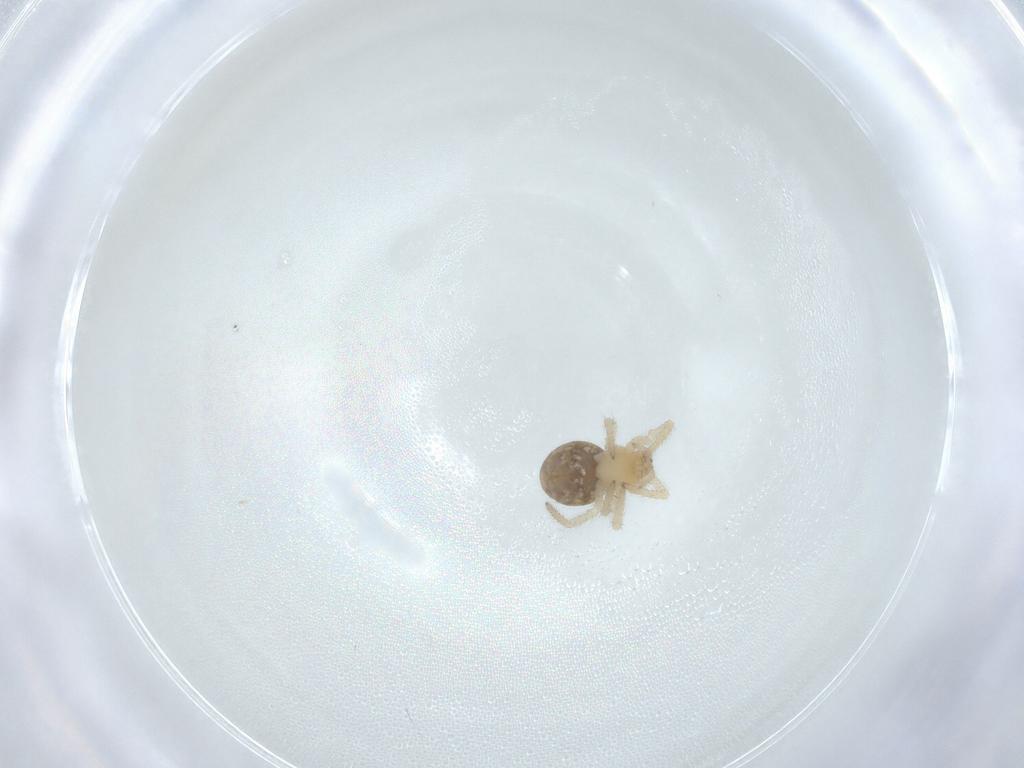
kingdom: Animalia
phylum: Arthropoda
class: Arachnida
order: Araneae
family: Theridiidae
